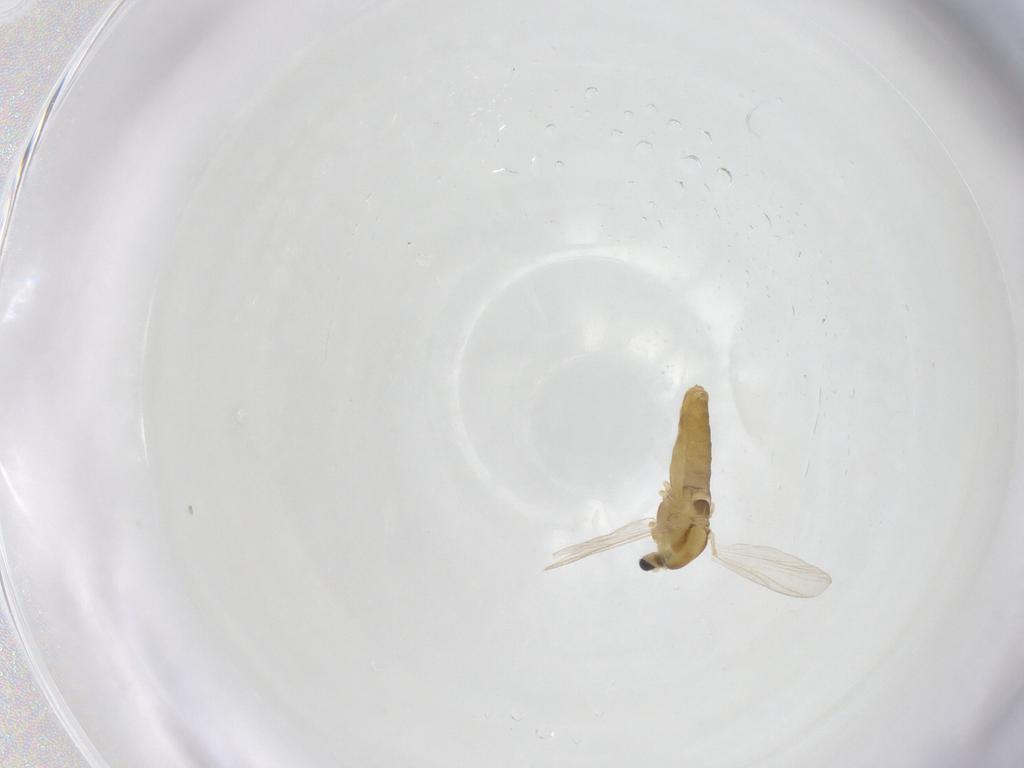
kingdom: Animalia
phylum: Arthropoda
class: Insecta
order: Diptera
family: Chironomidae
